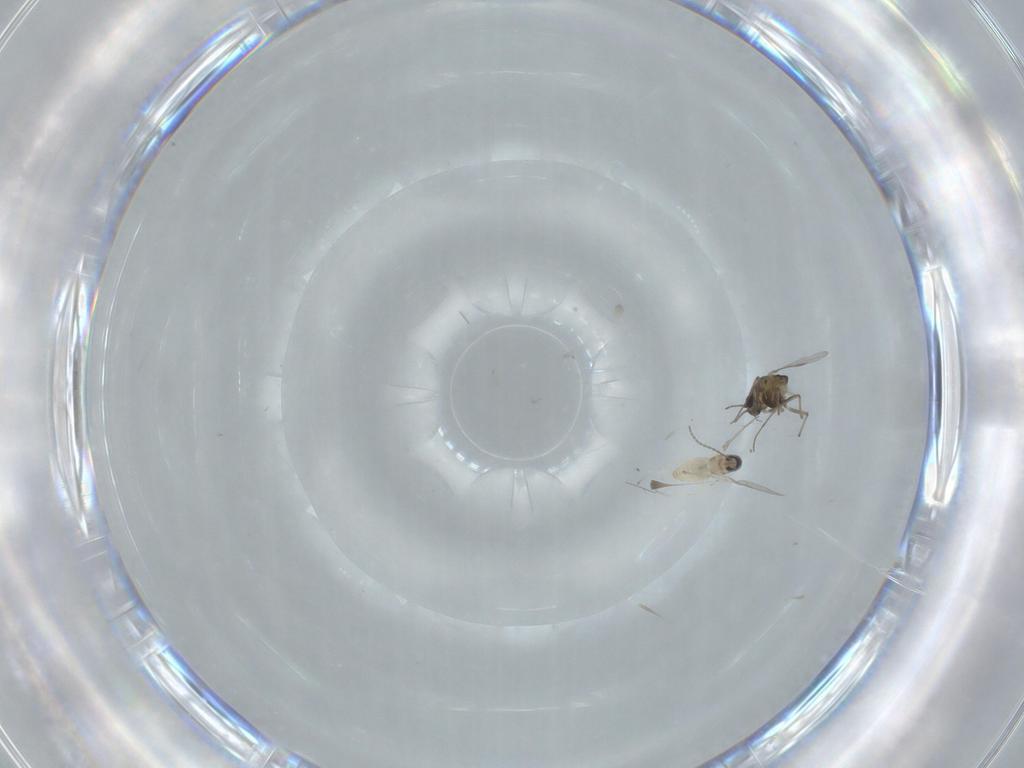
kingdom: Animalia
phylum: Arthropoda
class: Insecta
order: Diptera
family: Cecidomyiidae
